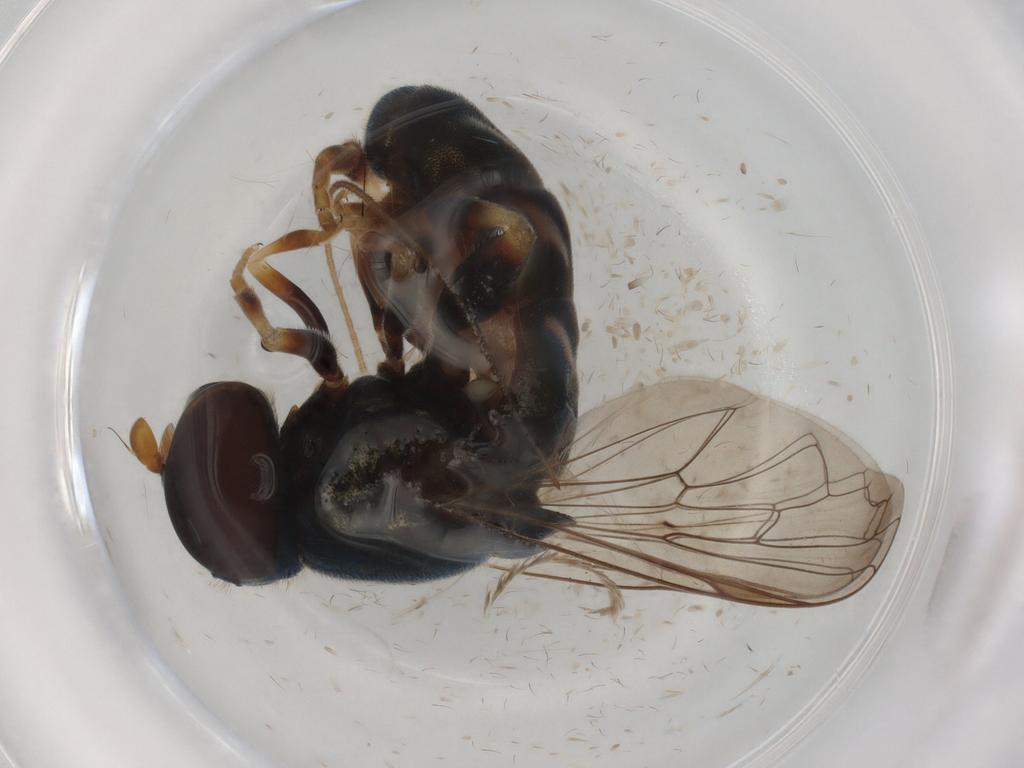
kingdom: Animalia
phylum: Arthropoda
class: Insecta
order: Diptera
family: Syrphidae
